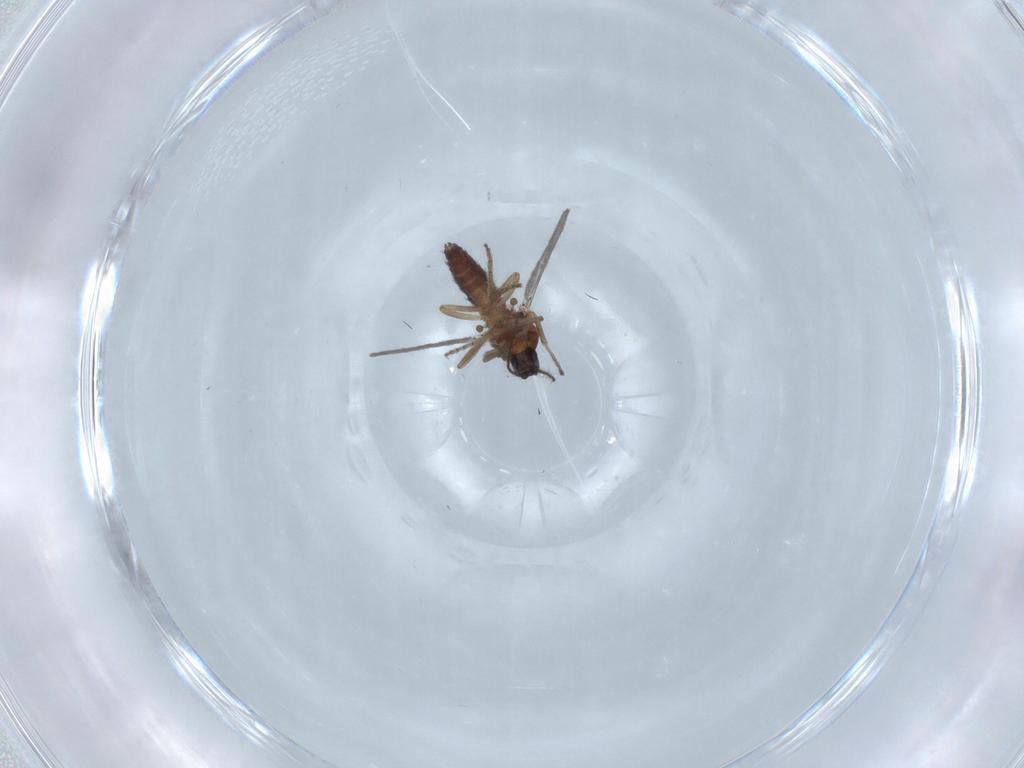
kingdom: Animalia
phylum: Arthropoda
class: Insecta
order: Diptera
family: Ceratopogonidae
